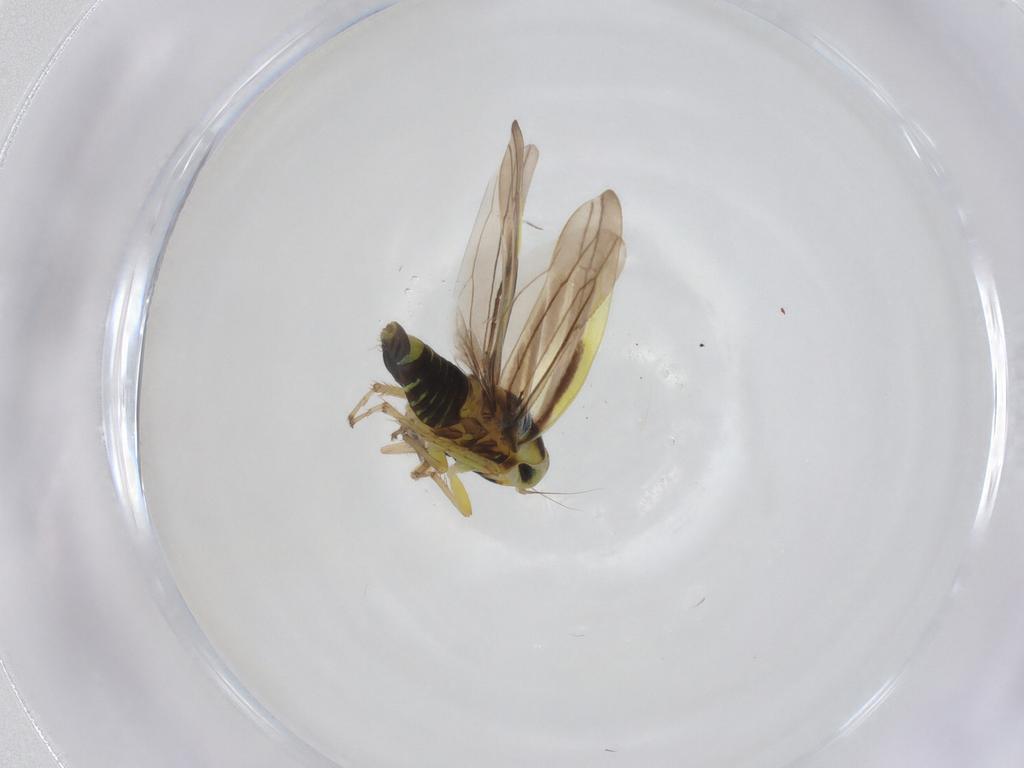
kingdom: Animalia
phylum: Arthropoda
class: Insecta
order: Hemiptera
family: Cicadellidae
